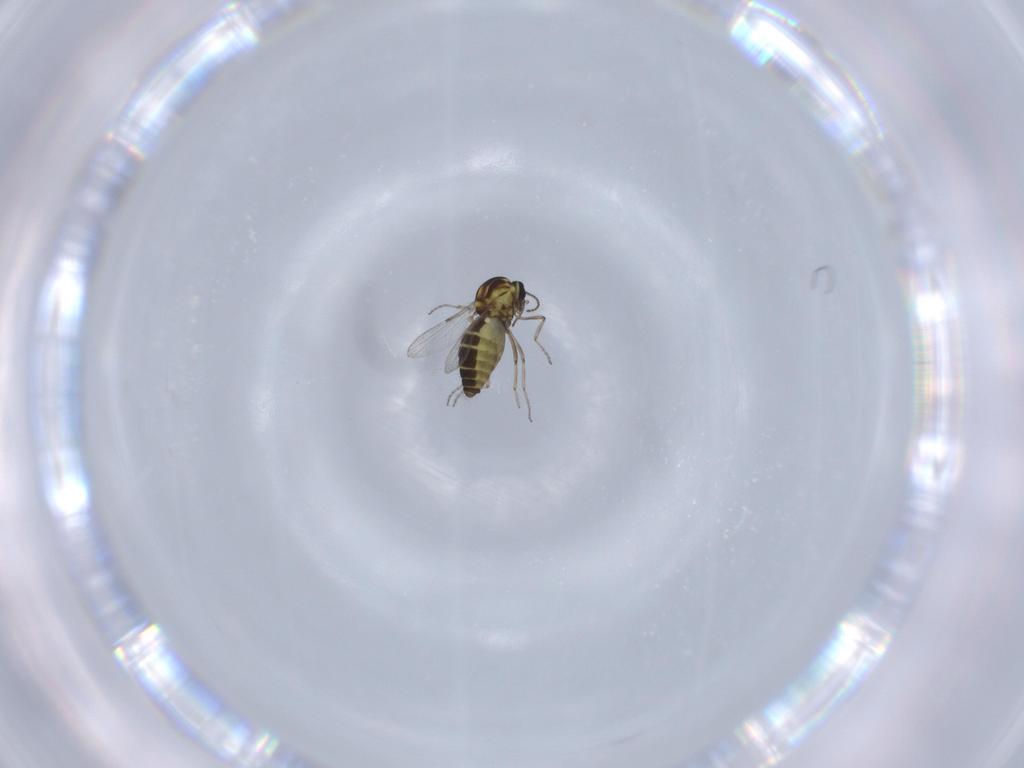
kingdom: Animalia
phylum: Arthropoda
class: Insecta
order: Diptera
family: Ceratopogonidae
